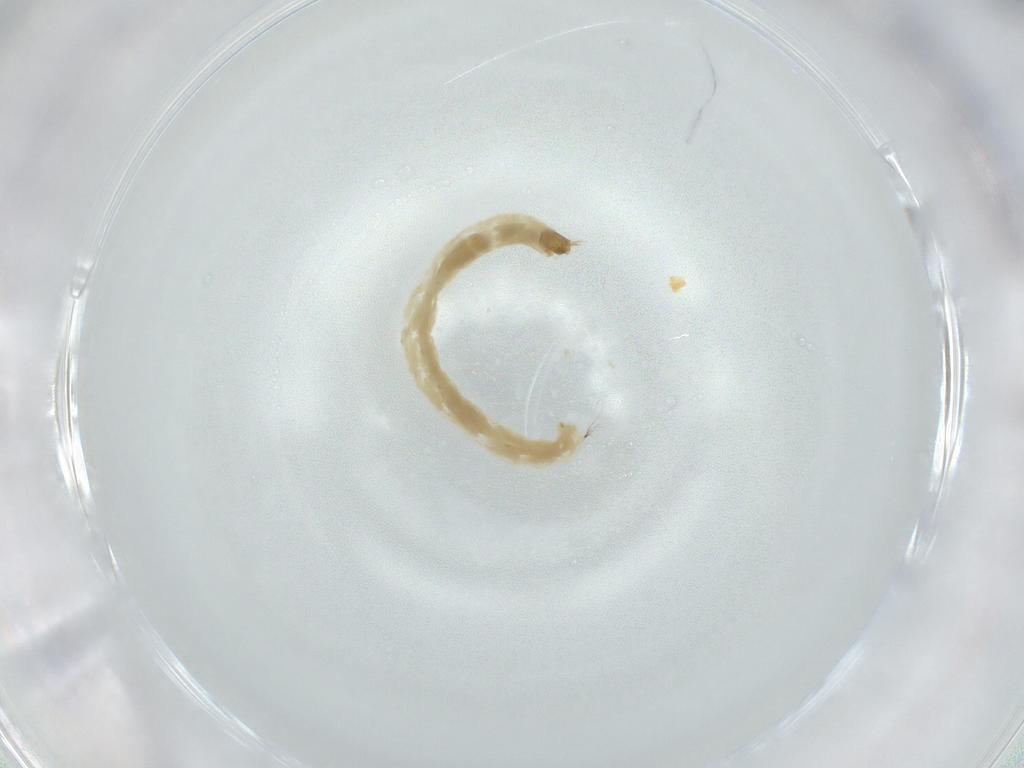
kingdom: Animalia
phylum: Arthropoda
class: Insecta
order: Diptera
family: Chironomidae
